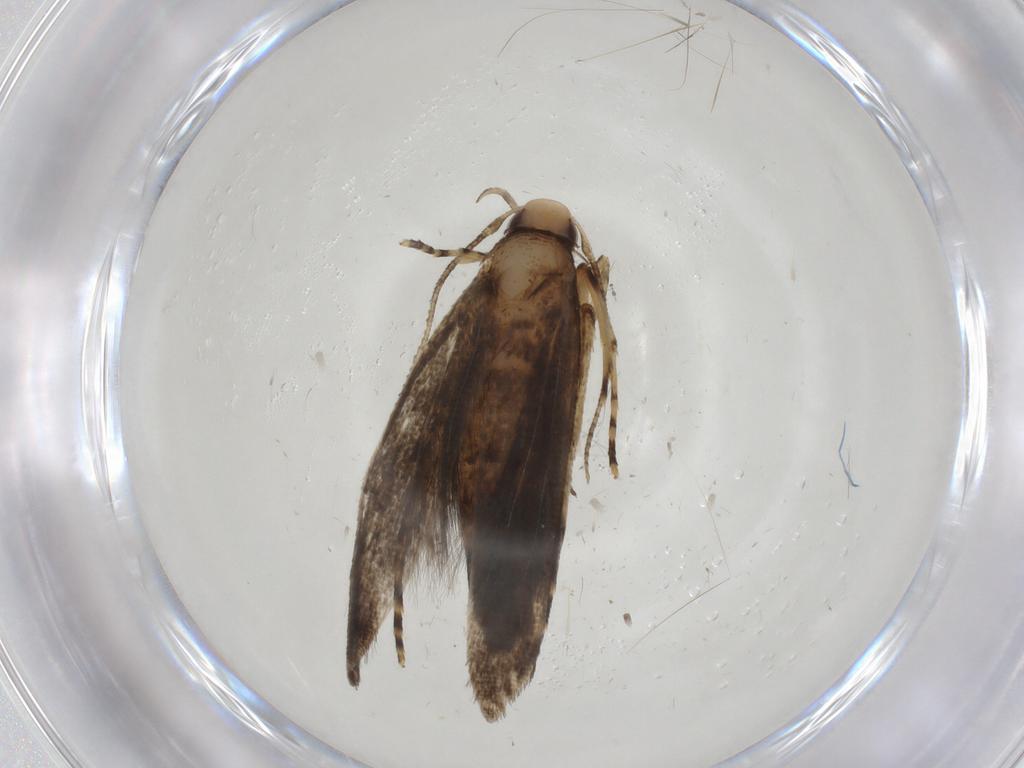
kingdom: Animalia
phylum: Arthropoda
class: Insecta
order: Lepidoptera
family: Cosmopterigidae
